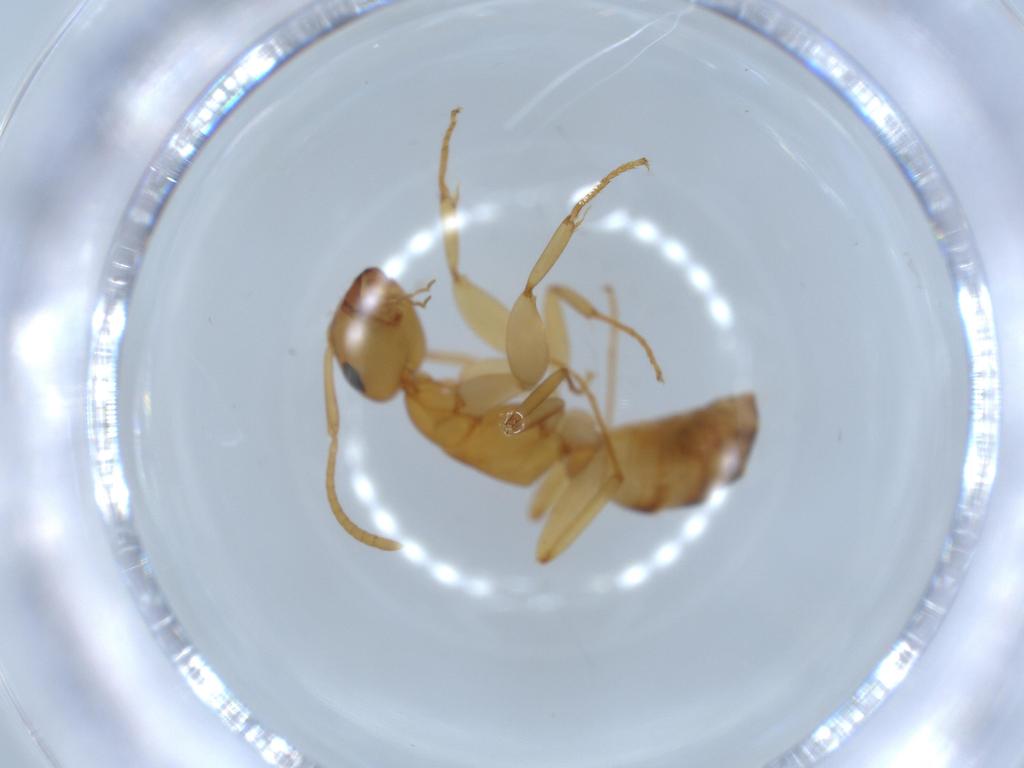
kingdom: Animalia
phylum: Arthropoda
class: Insecta
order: Hymenoptera
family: Formicidae
